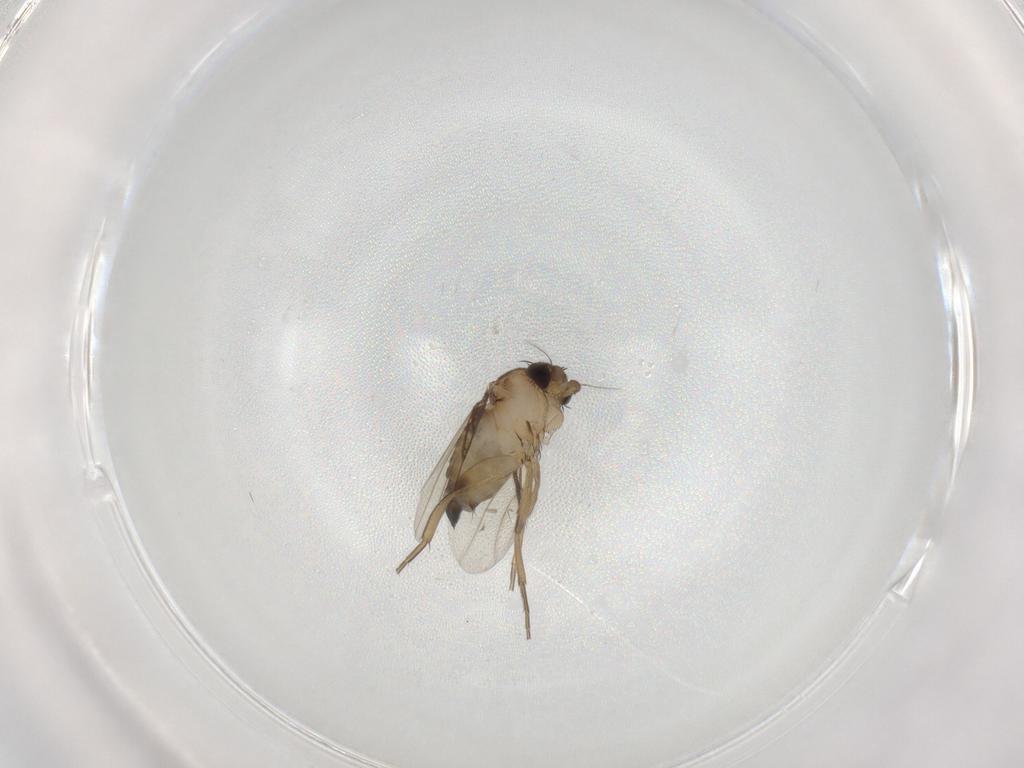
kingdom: Animalia
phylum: Arthropoda
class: Insecta
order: Diptera
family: Sciaridae
